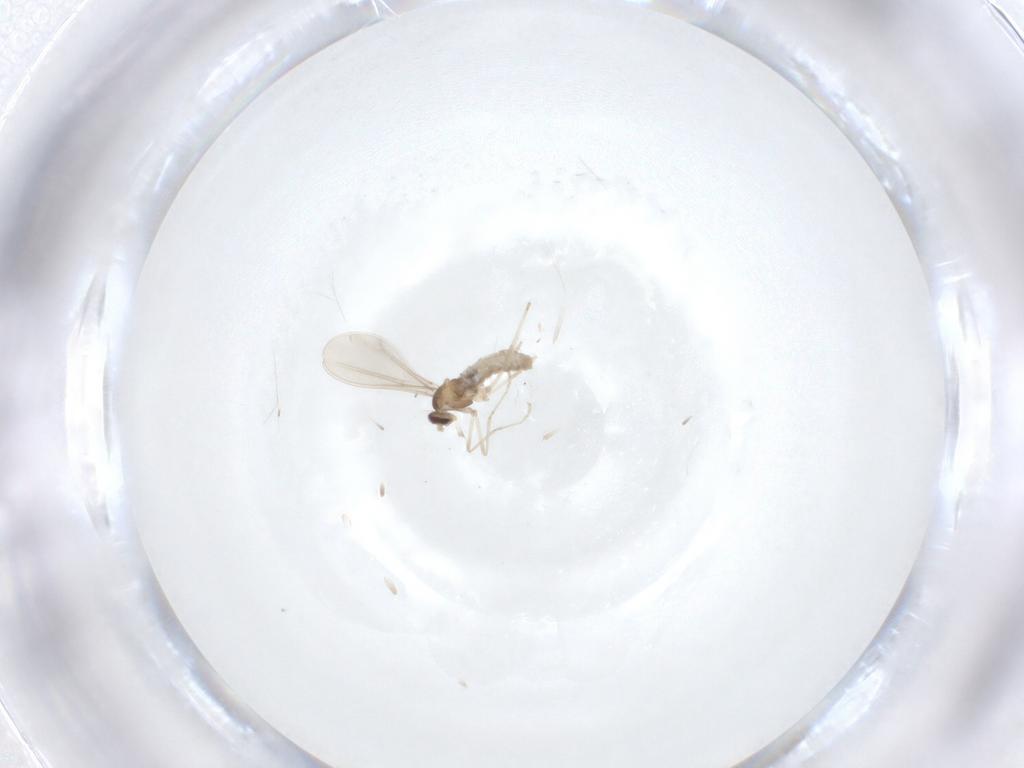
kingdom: Animalia
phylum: Arthropoda
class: Insecta
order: Diptera
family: Cecidomyiidae
